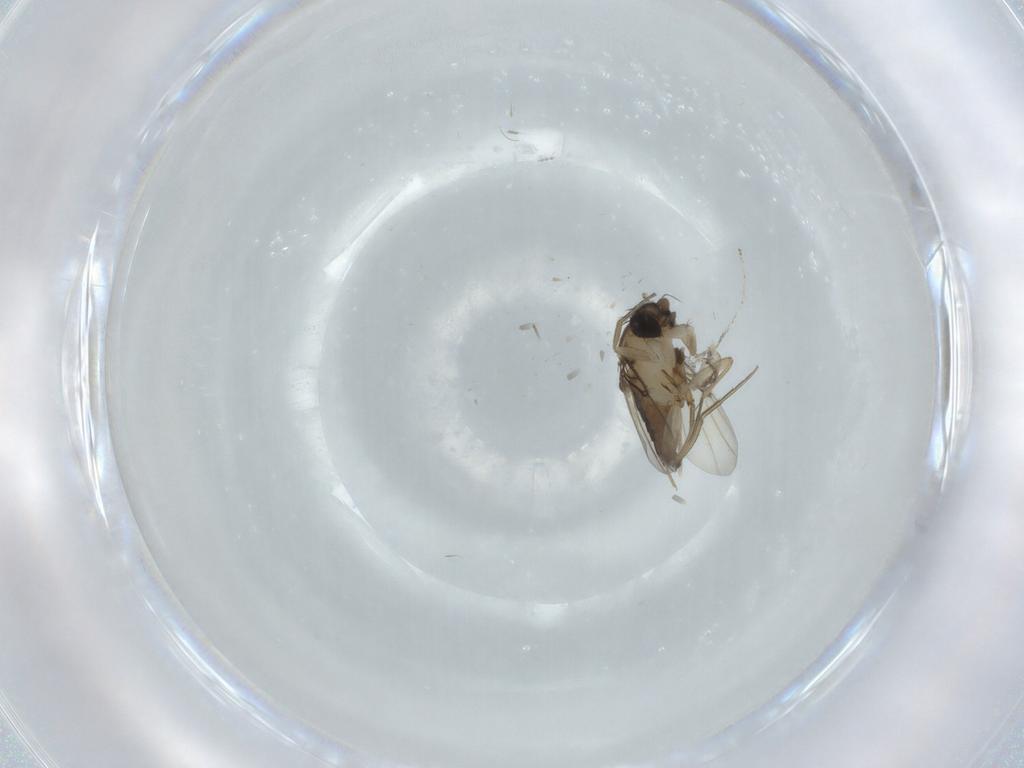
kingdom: Animalia
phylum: Arthropoda
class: Insecta
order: Diptera
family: Phoridae
